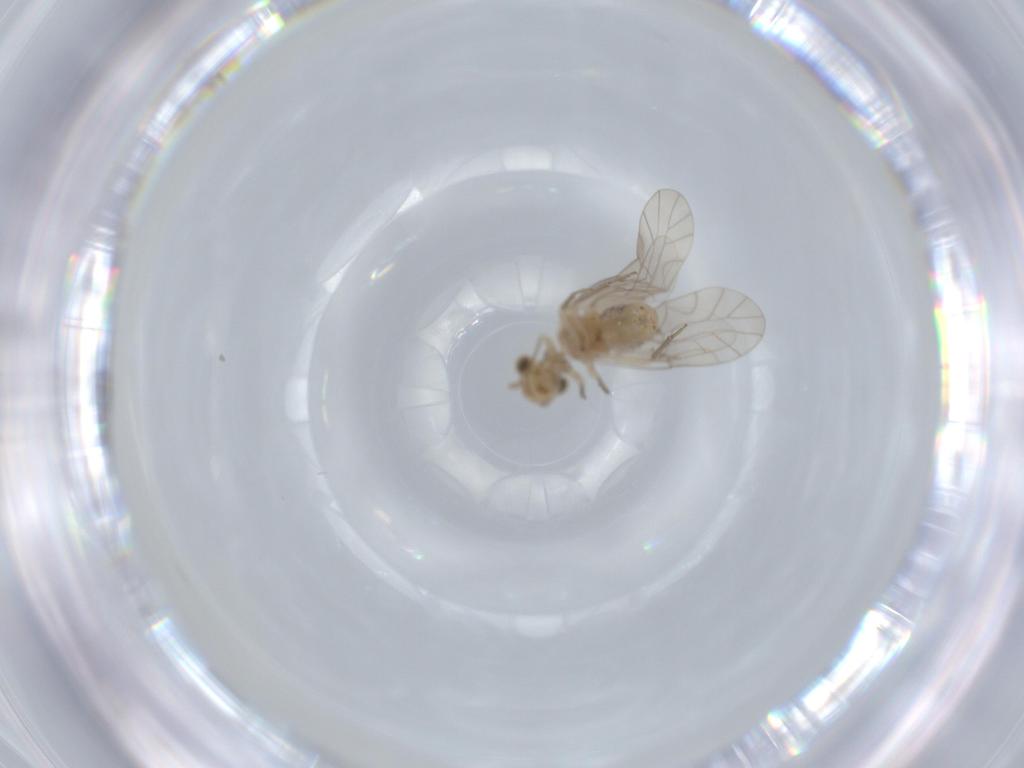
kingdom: Animalia
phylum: Arthropoda
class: Insecta
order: Psocodea
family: Lachesillidae
